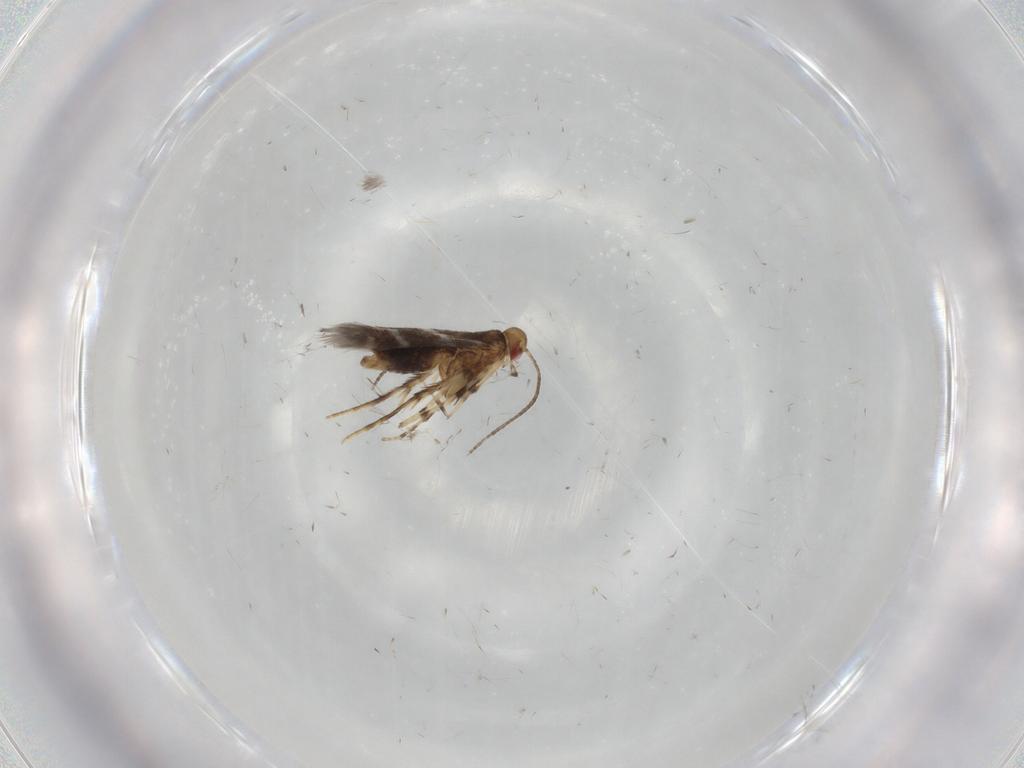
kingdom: Animalia
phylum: Arthropoda
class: Insecta
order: Lepidoptera
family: Gracillariidae
